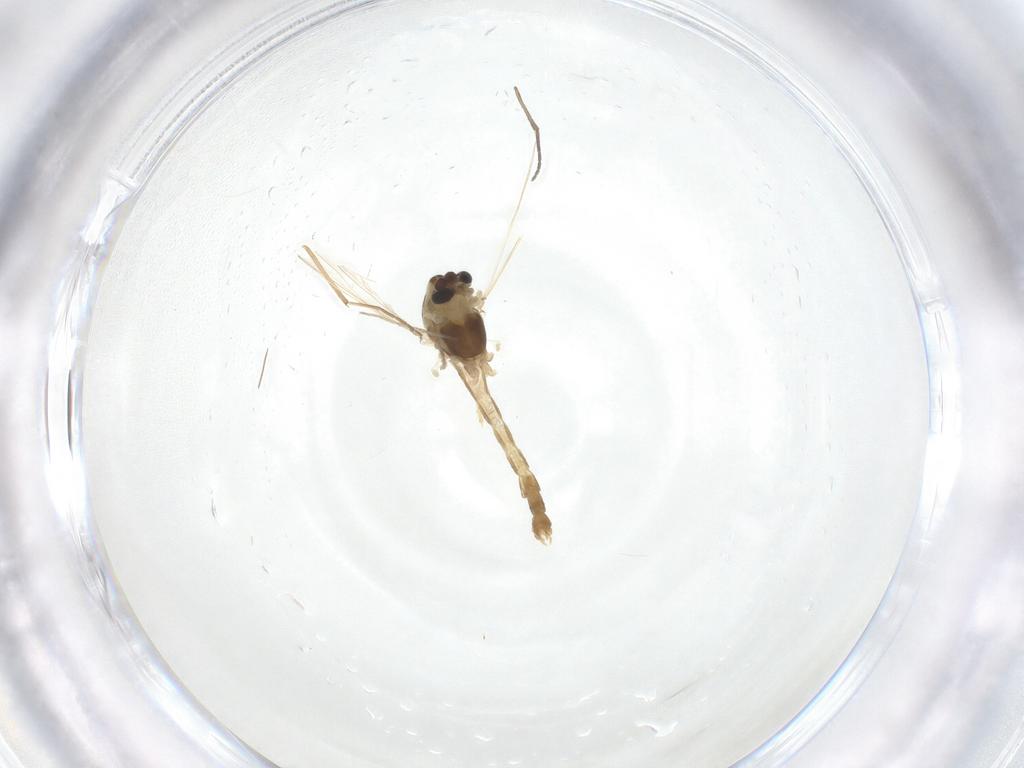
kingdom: Animalia
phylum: Arthropoda
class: Insecta
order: Diptera
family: Chironomidae
